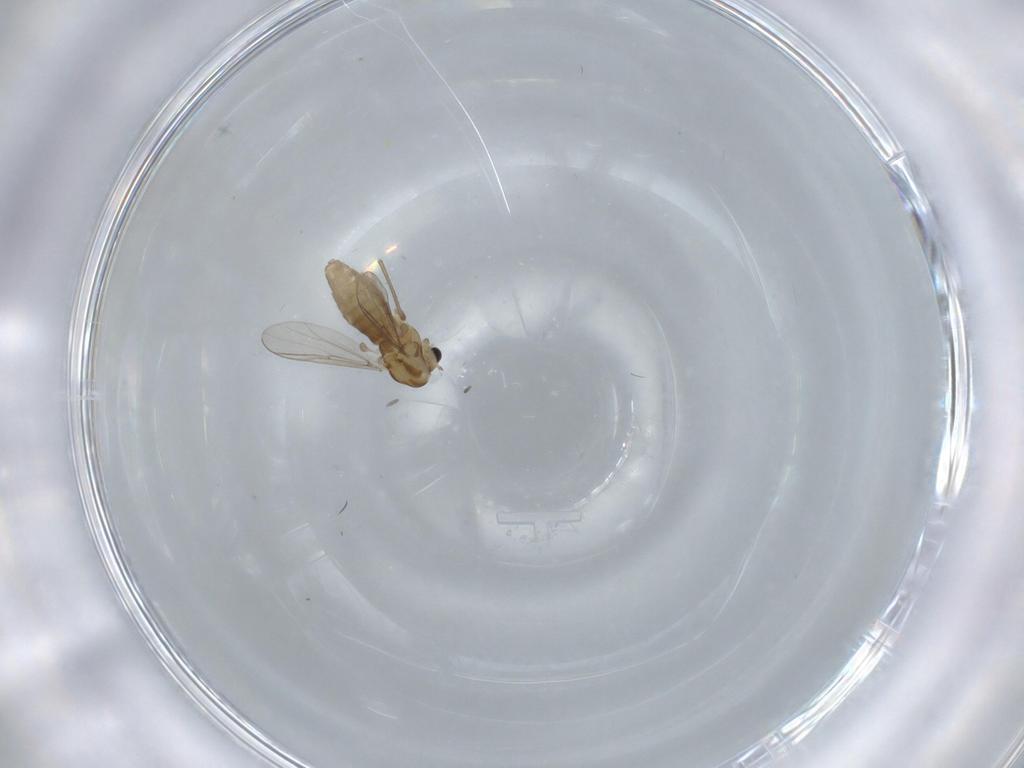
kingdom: Animalia
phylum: Arthropoda
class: Insecta
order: Diptera
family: Chironomidae
